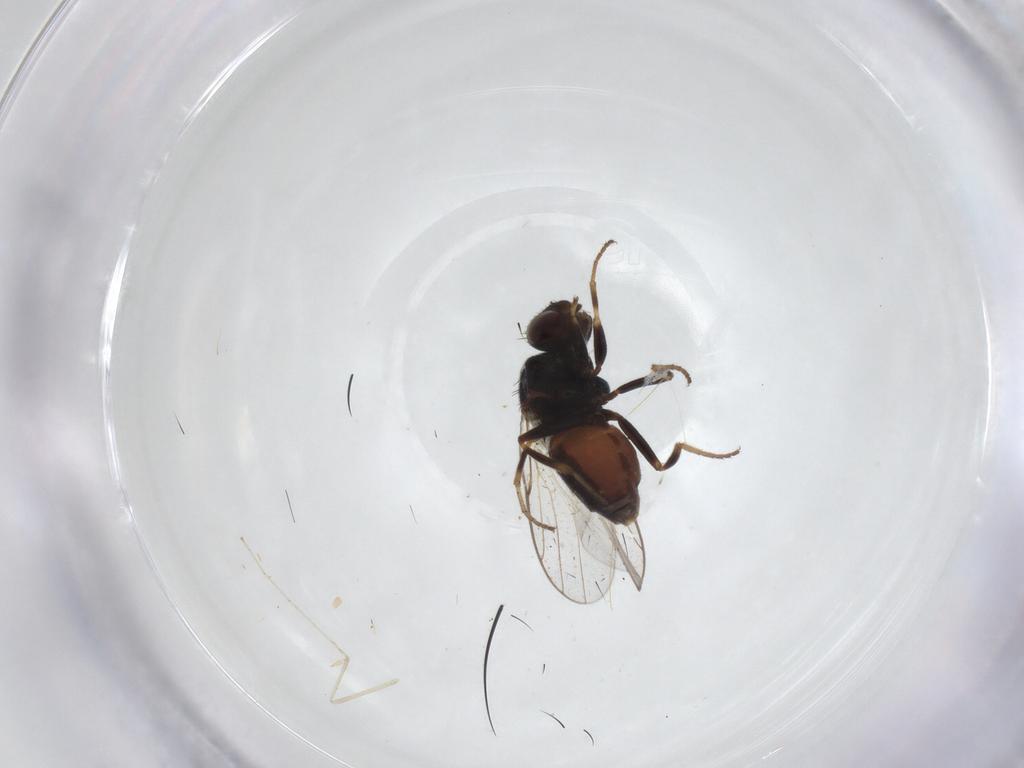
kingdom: Animalia
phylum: Arthropoda
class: Insecta
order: Diptera
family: Chloropidae
